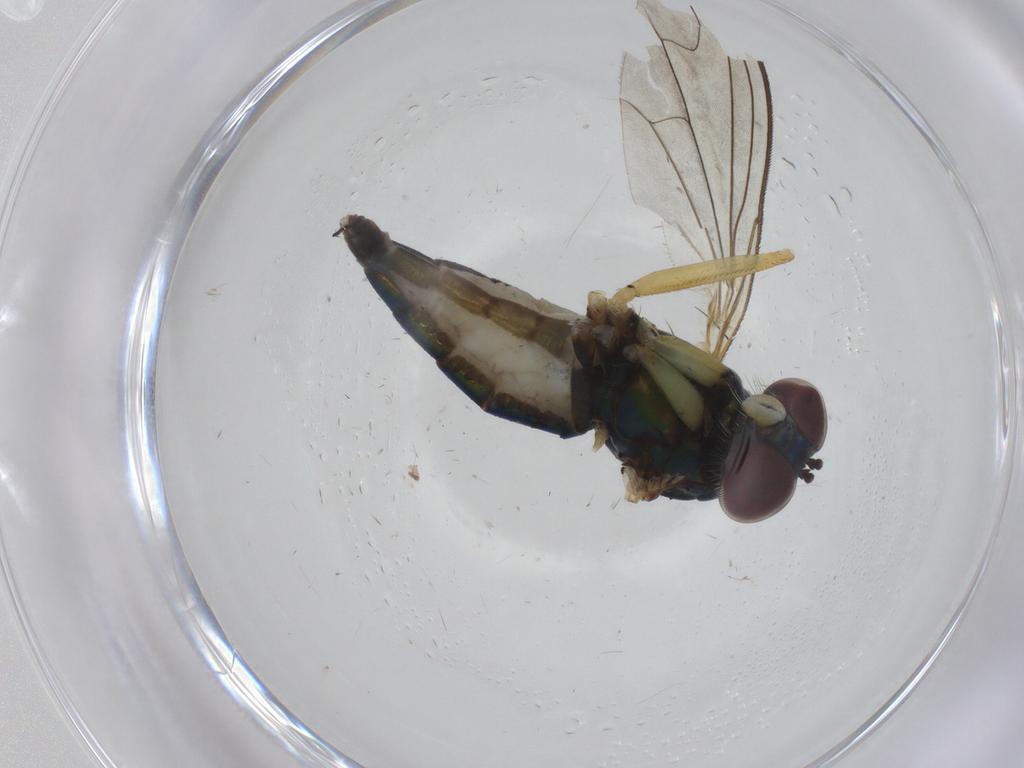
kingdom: Animalia
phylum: Arthropoda
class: Insecta
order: Diptera
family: Dolichopodidae
